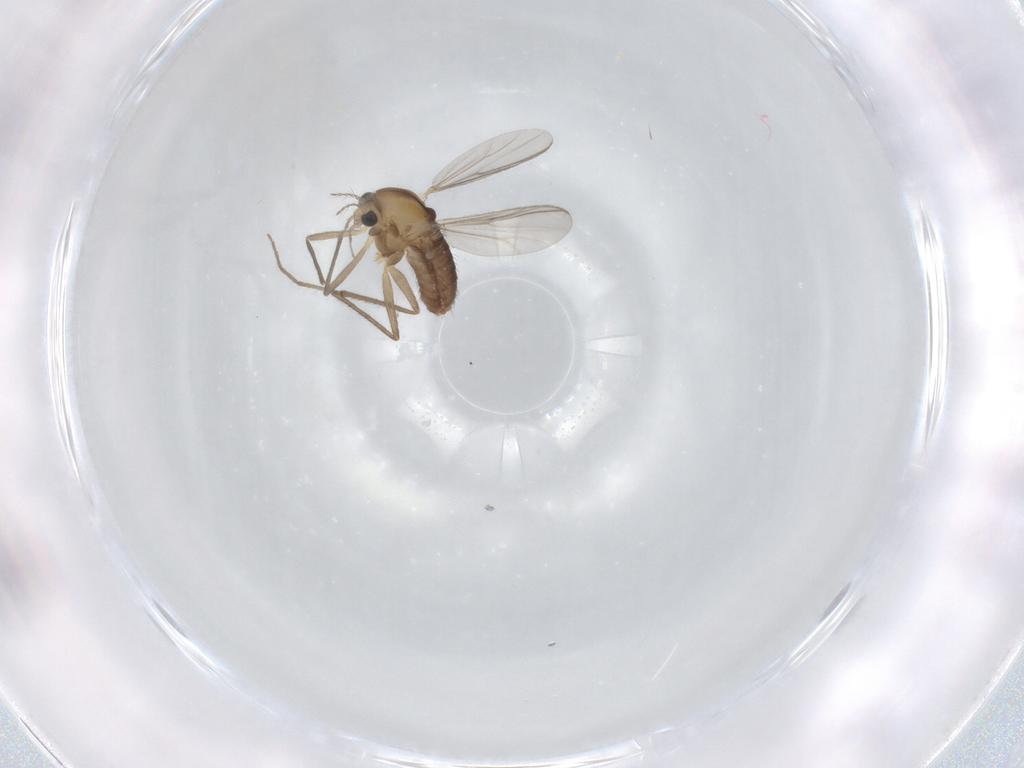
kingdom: Animalia
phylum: Arthropoda
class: Insecta
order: Diptera
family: Chironomidae
